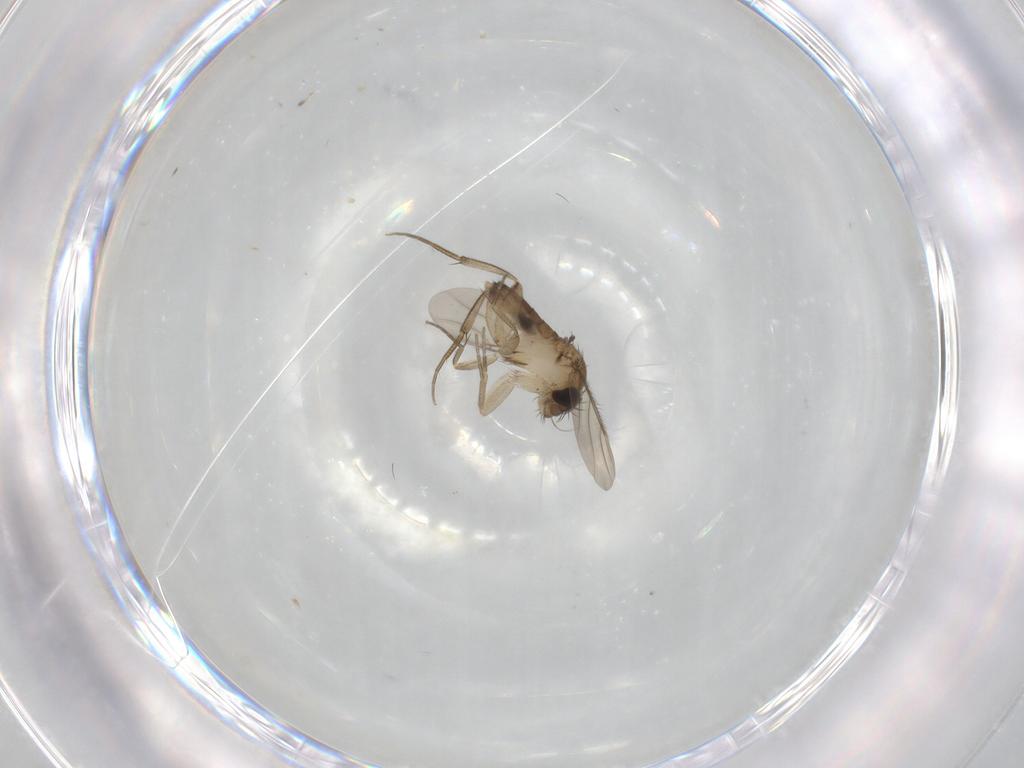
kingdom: Animalia
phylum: Arthropoda
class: Insecta
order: Diptera
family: Phoridae
